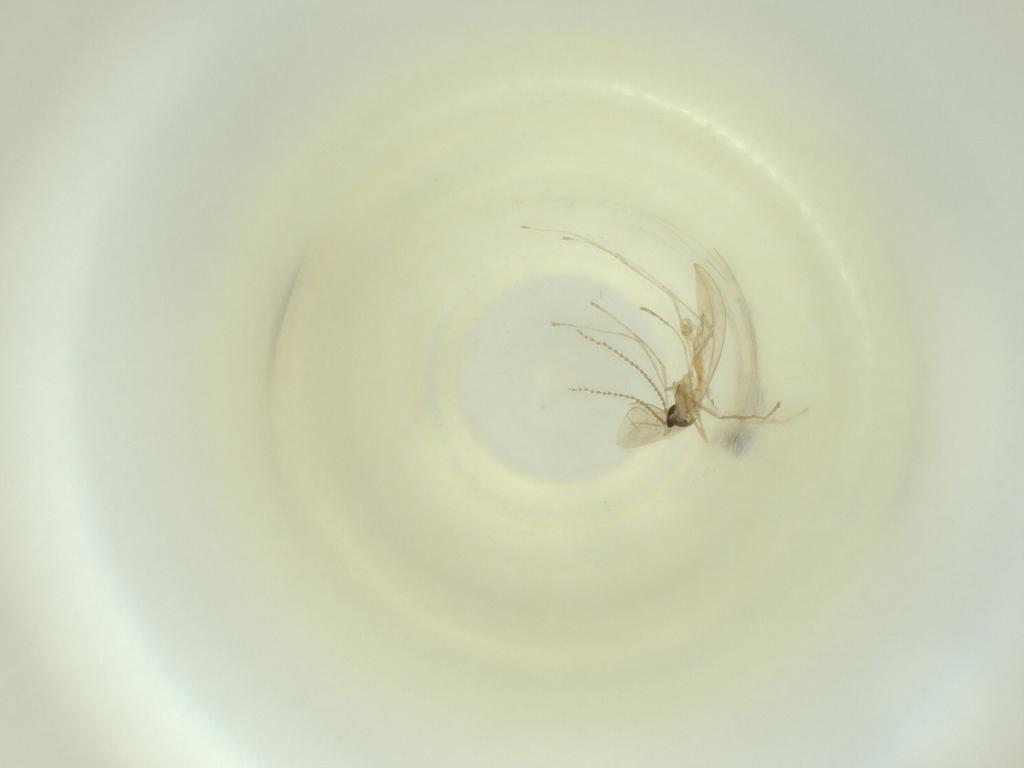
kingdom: Animalia
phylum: Arthropoda
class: Insecta
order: Diptera
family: Cecidomyiidae
